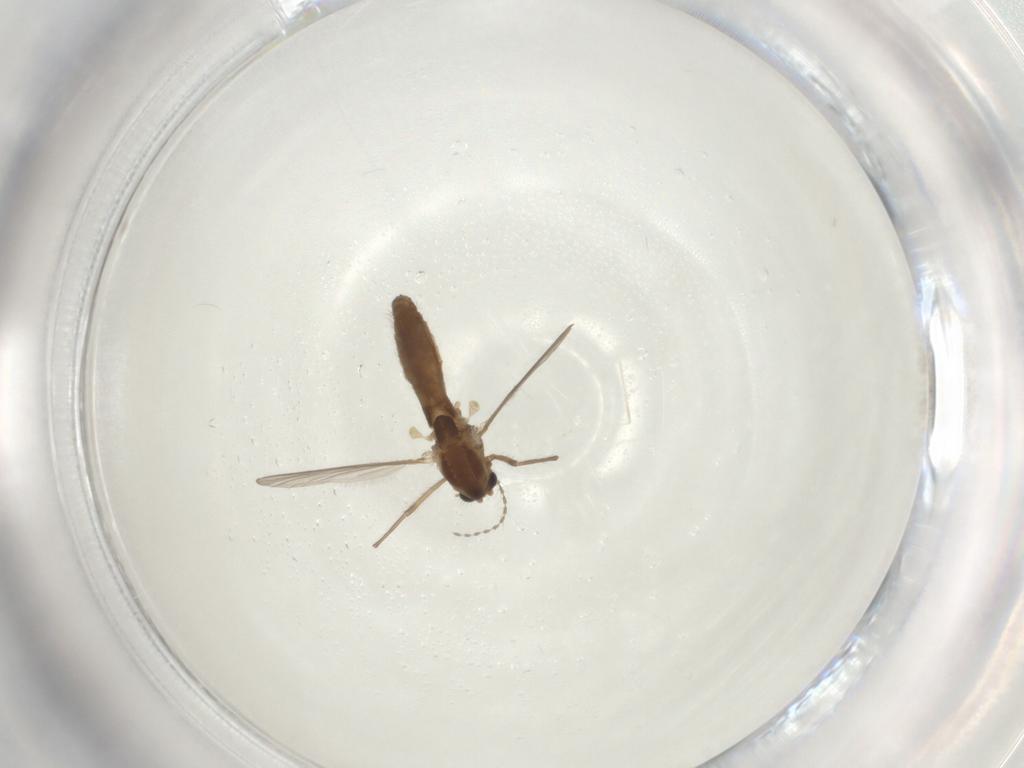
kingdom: Animalia
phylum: Arthropoda
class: Insecta
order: Diptera
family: Chironomidae
